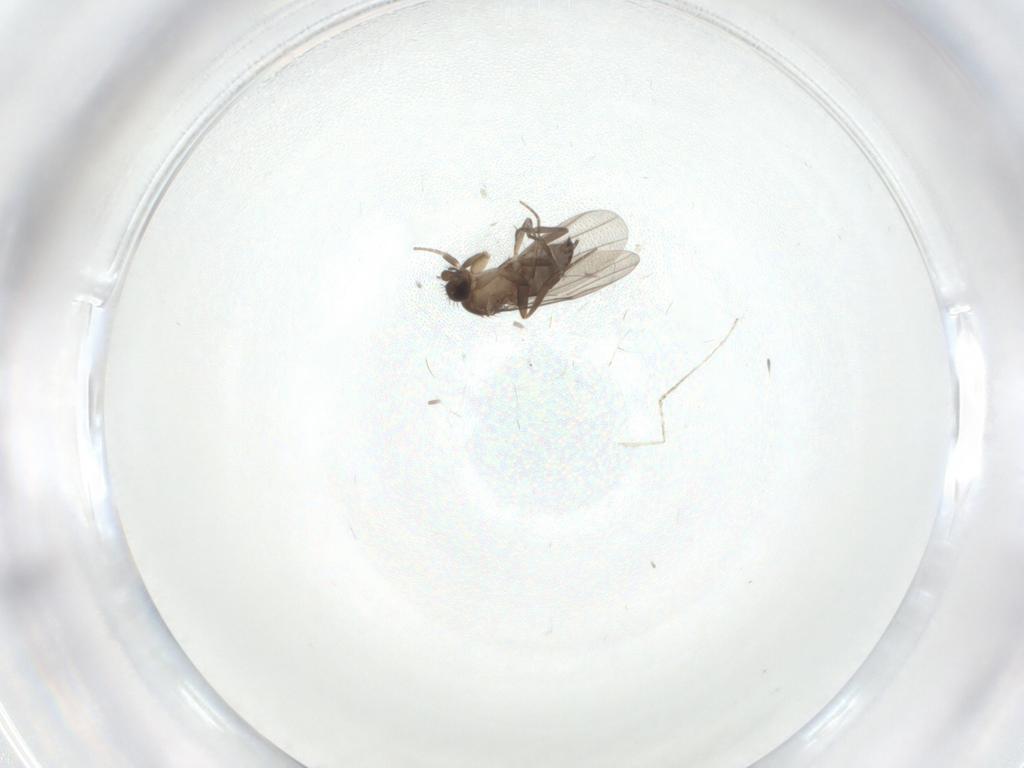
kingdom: Animalia
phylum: Arthropoda
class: Insecta
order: Diptera
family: Phoridae
